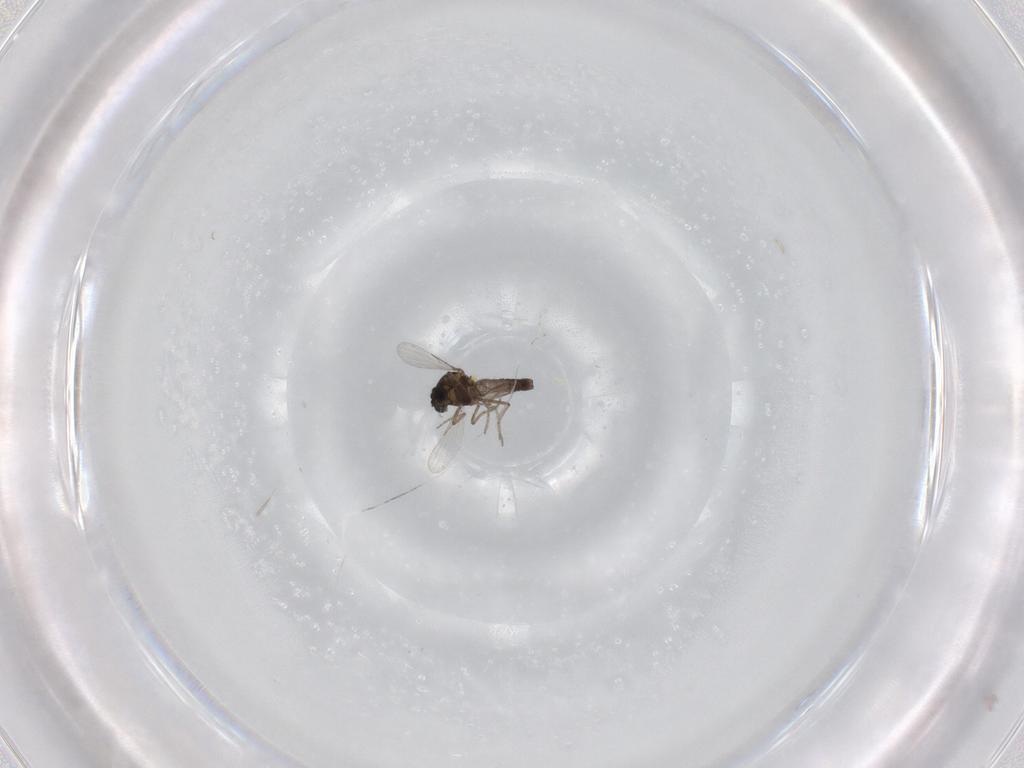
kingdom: Animalia
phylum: Arthropoda
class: Insecta
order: Diptera
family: Ceratopogonidae
